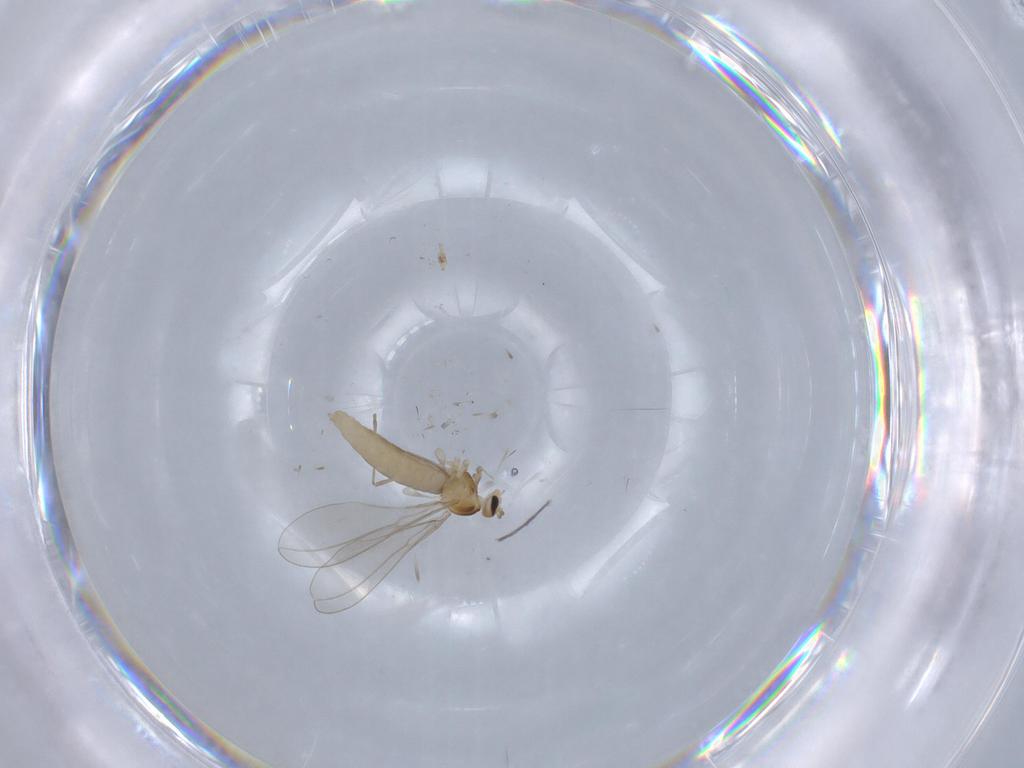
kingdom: Animalia
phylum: Arthropoda
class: Insecta
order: Diptera
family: Cecidomyiidae
